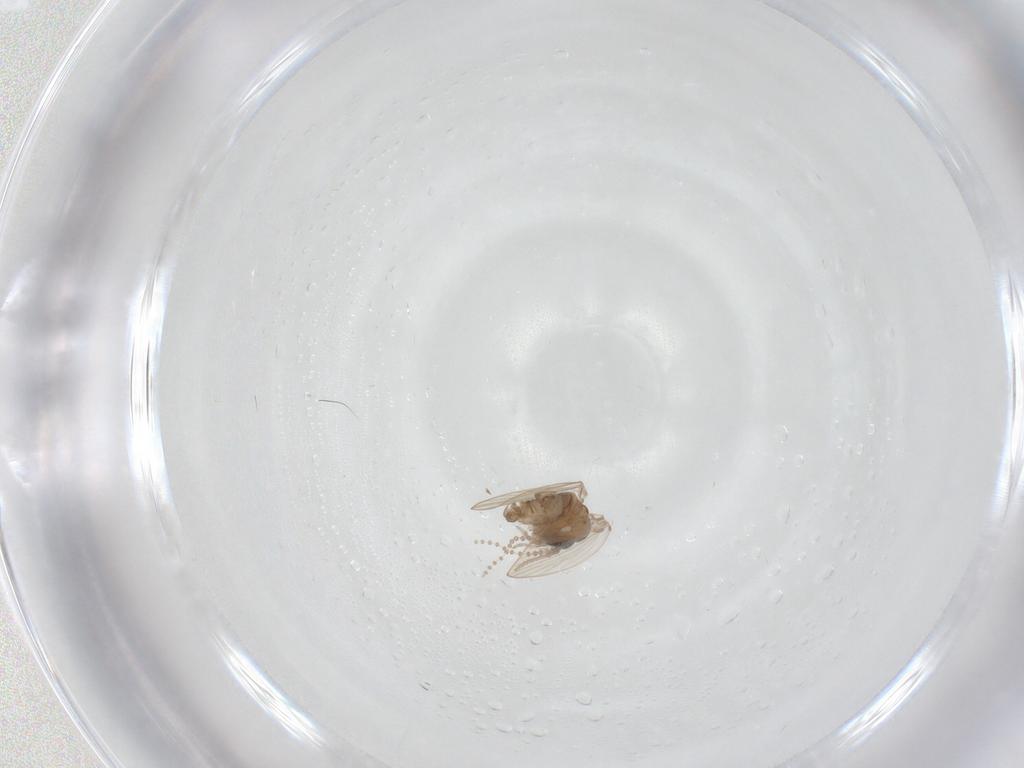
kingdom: Animalia
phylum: Arthropoda
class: Insecta
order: Diptera
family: Psychodidae
